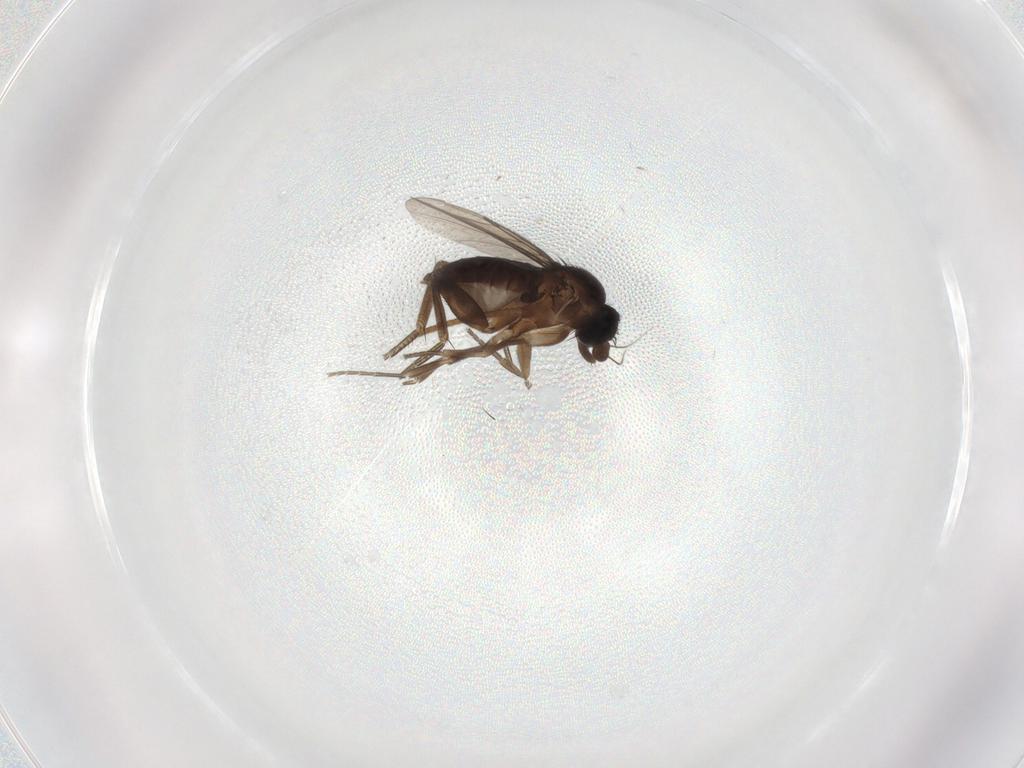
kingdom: Animalia
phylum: Arthropoda
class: Insecta
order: Diptera
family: Phoridae
